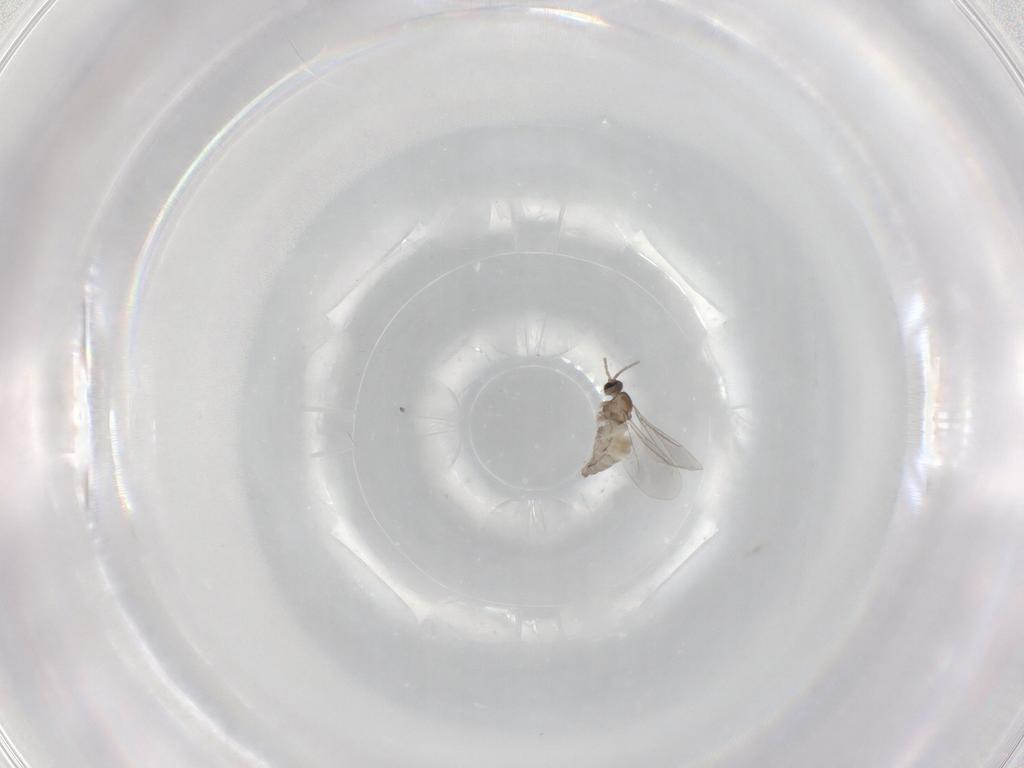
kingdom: Animalia
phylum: Arthropoda
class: Insecta
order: Diptera
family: Cecidomyiidae
